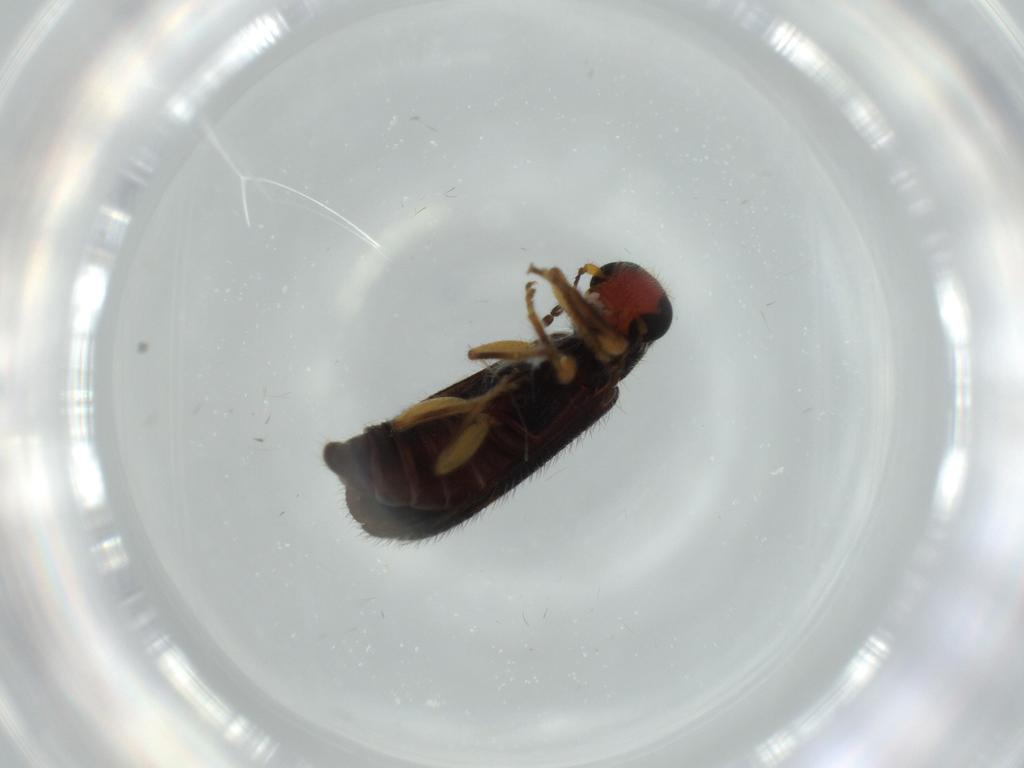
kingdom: Animalia
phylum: Arthropoda
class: Insecta
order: Coleoptera
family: Cleridae
